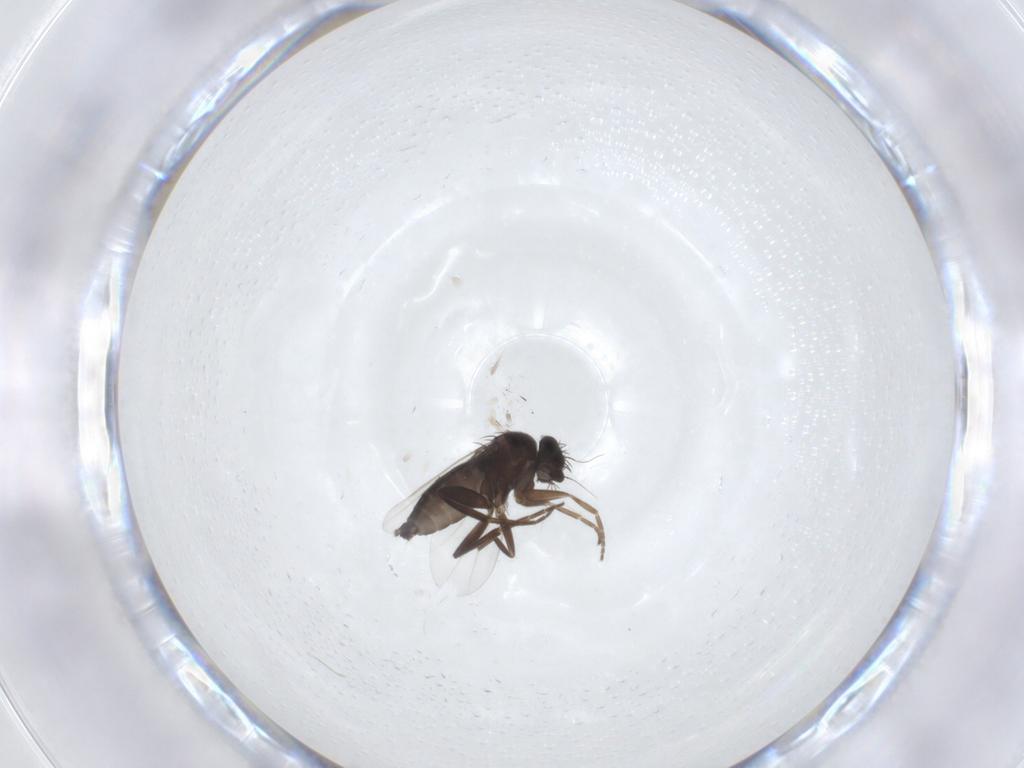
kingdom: Animalia
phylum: Arthropoda
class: Insecta
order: Diptera
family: Phoridae
